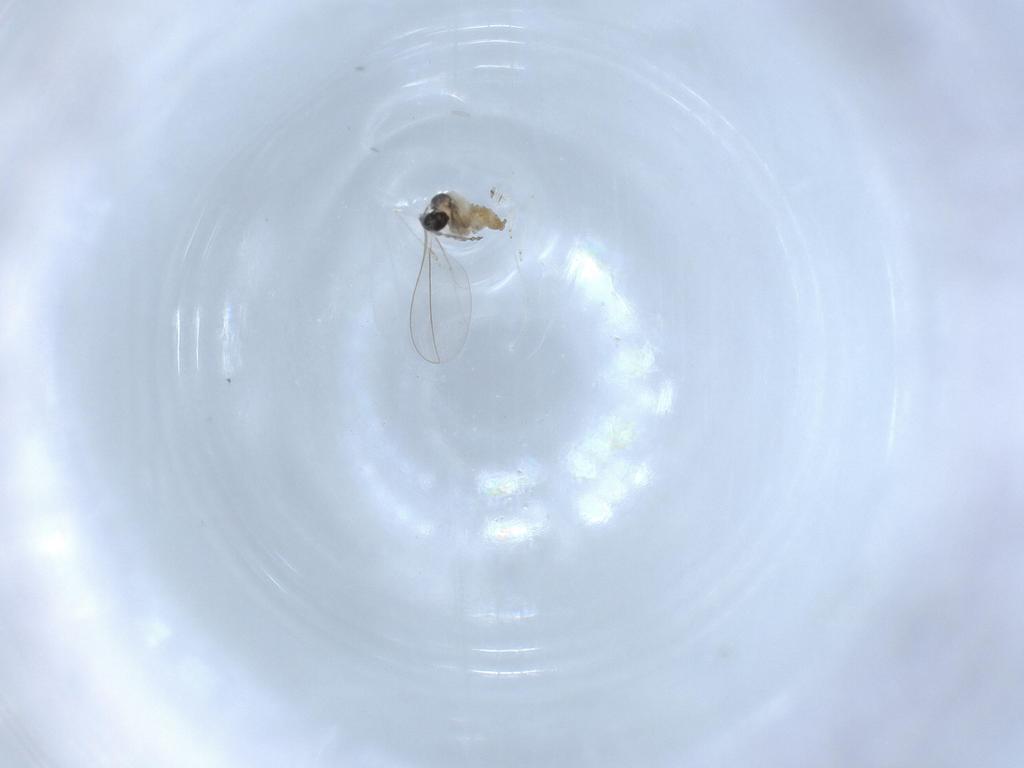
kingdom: Animalia
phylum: Arthropoda
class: Insecta
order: Diptera
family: Cecidomyiidae
